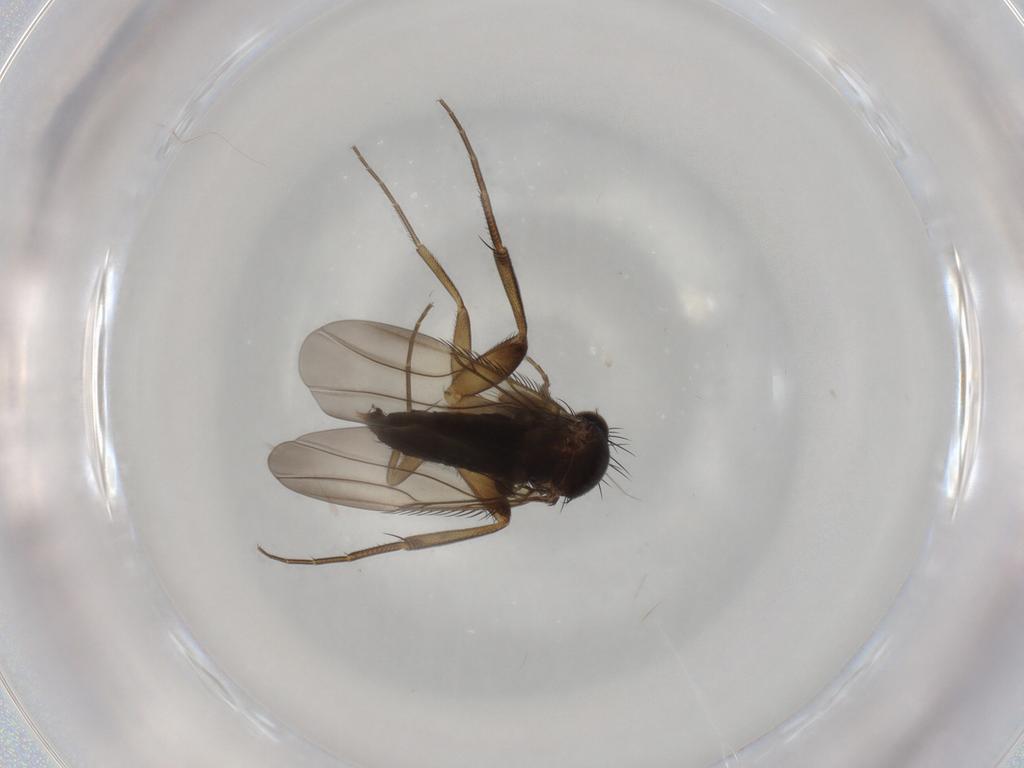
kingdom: Animalia
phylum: Arthropoda
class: Insecta
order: Diptera
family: Phoridae
